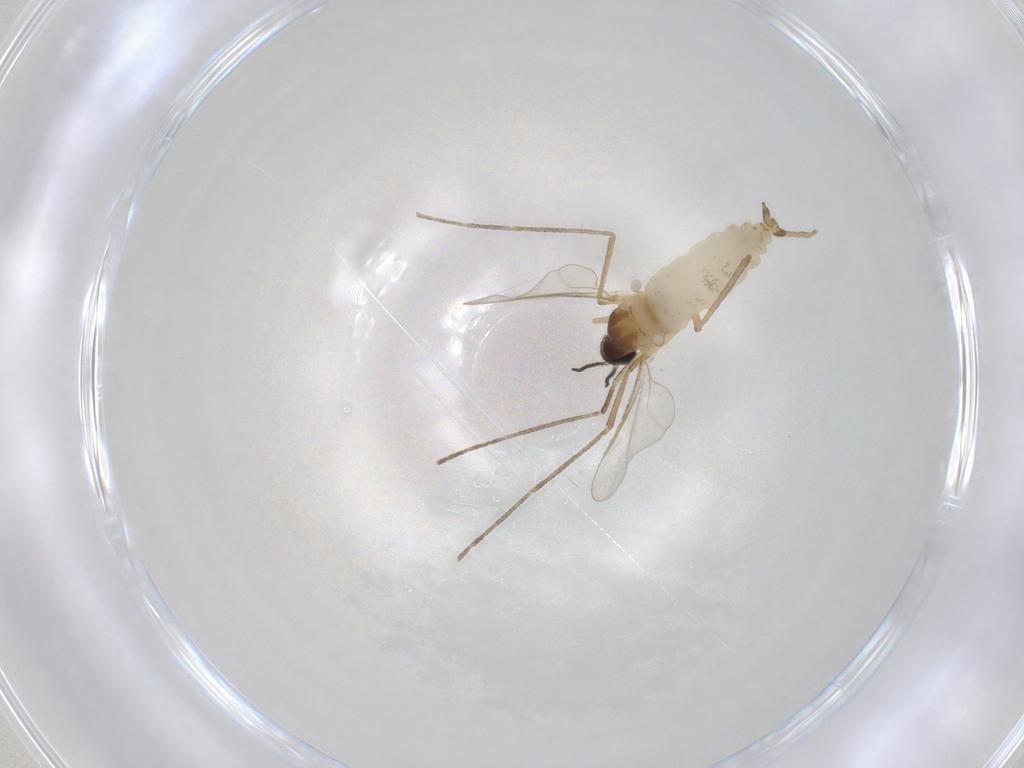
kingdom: Animalia
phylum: Arthropoda
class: Insecta
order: Diptera
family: Cecidomyiidae
